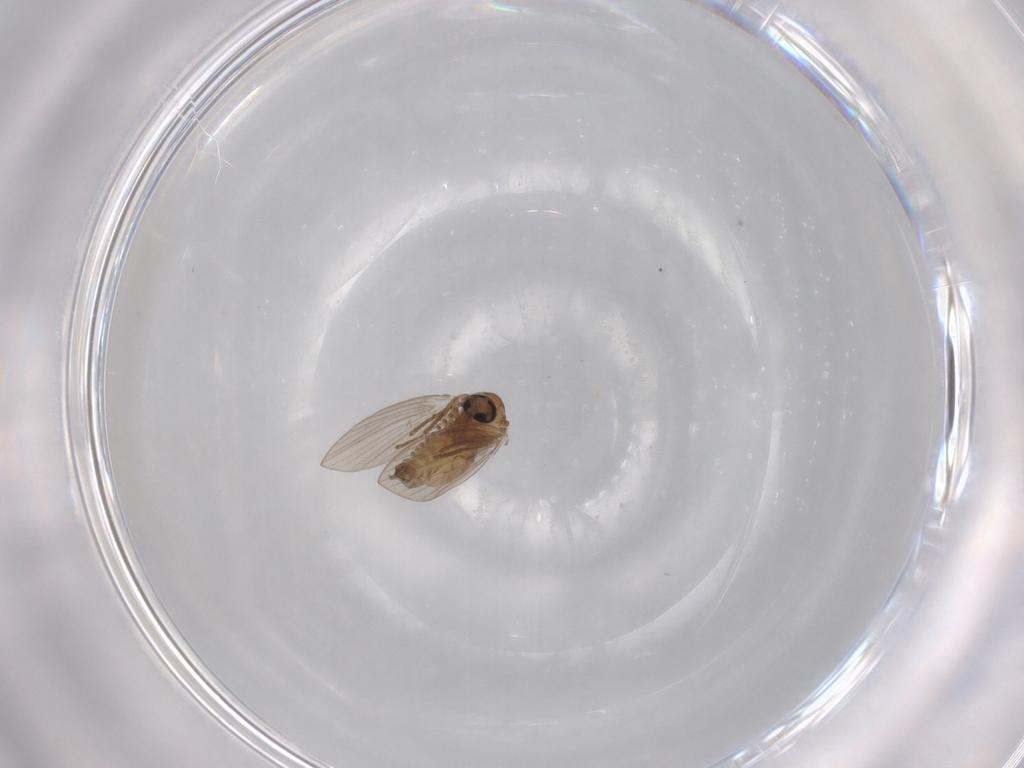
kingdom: Animalia
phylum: Arthropoda
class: Insecta
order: Diptera
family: Psychodidae
